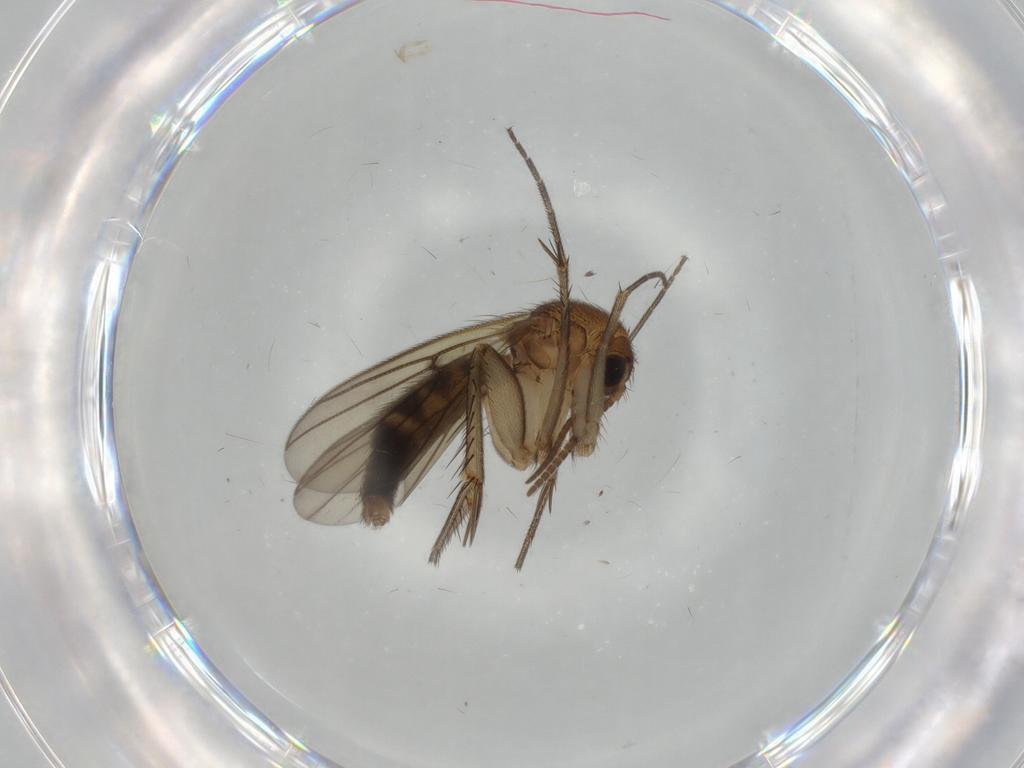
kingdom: Animalia
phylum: Arthropoda
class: Insecta
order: Diptera
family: Mycetophilidae
